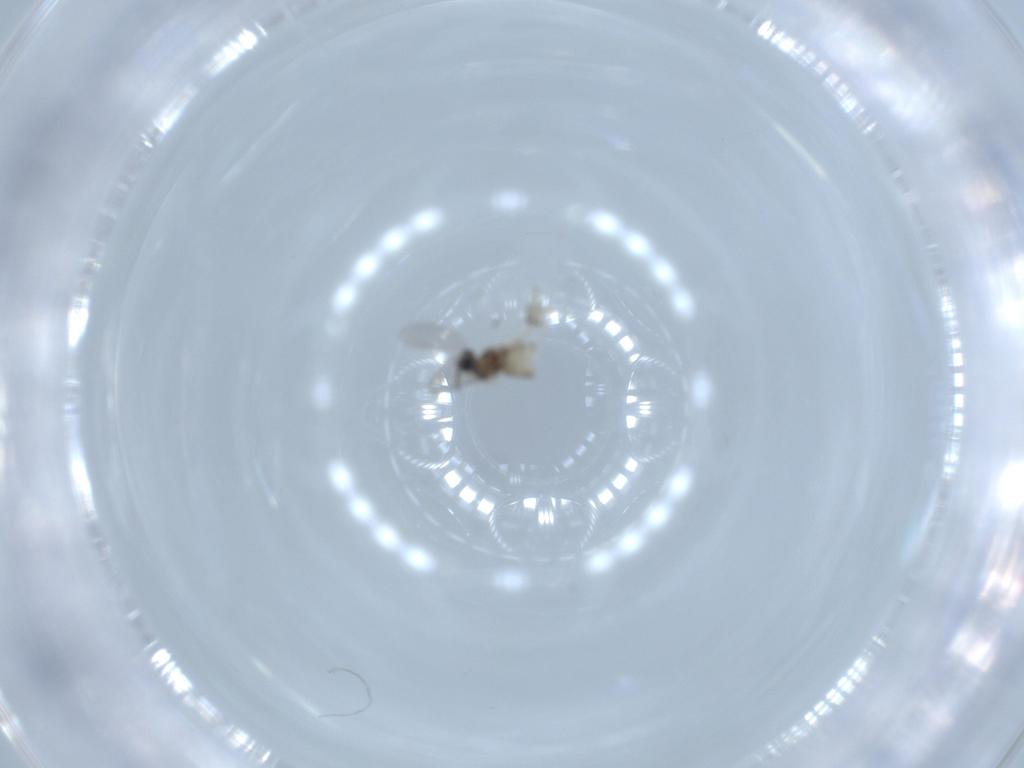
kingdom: Animalia
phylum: Arthropoda
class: Insecta
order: Diptera
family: Cecidomyiidae
